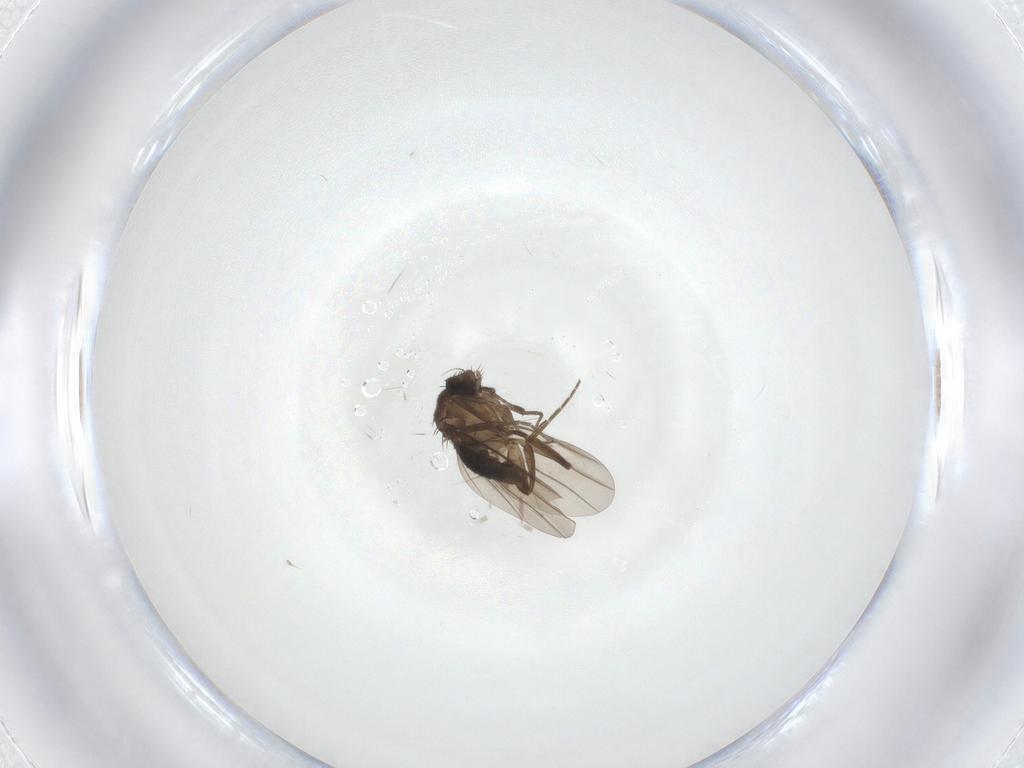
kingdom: Animalia
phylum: Arthropoda
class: Insecta
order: Diptera
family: Phoridae
